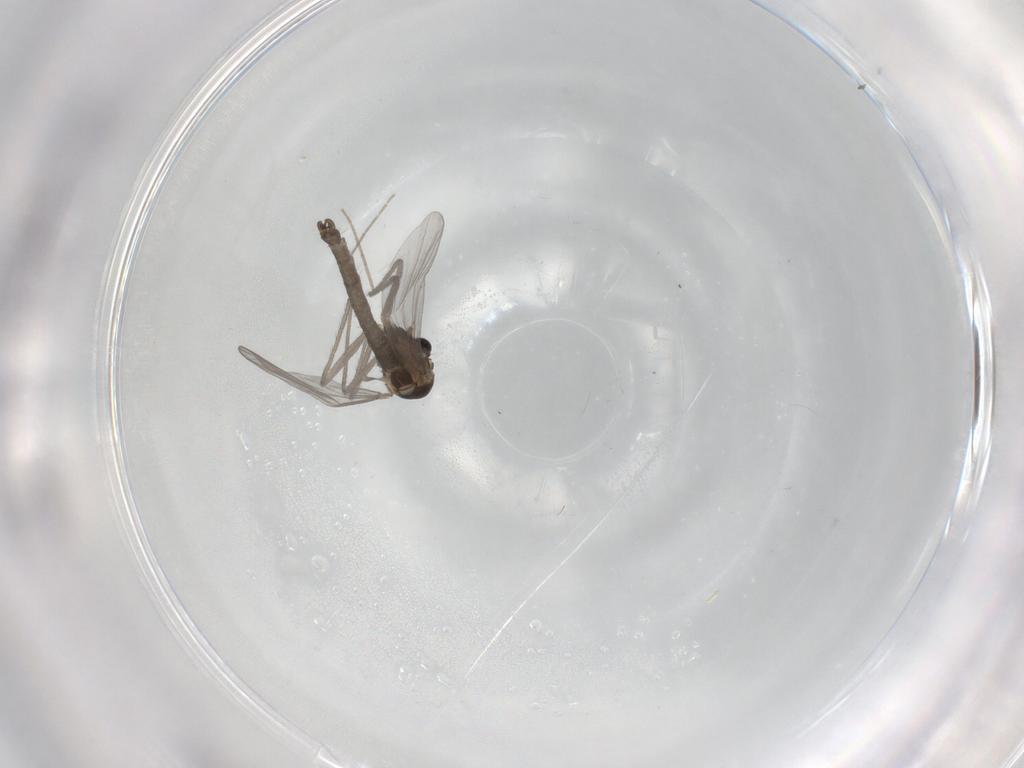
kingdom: Animalia
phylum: Arthropoda
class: Insecta
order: Diptera
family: Chironomidae
